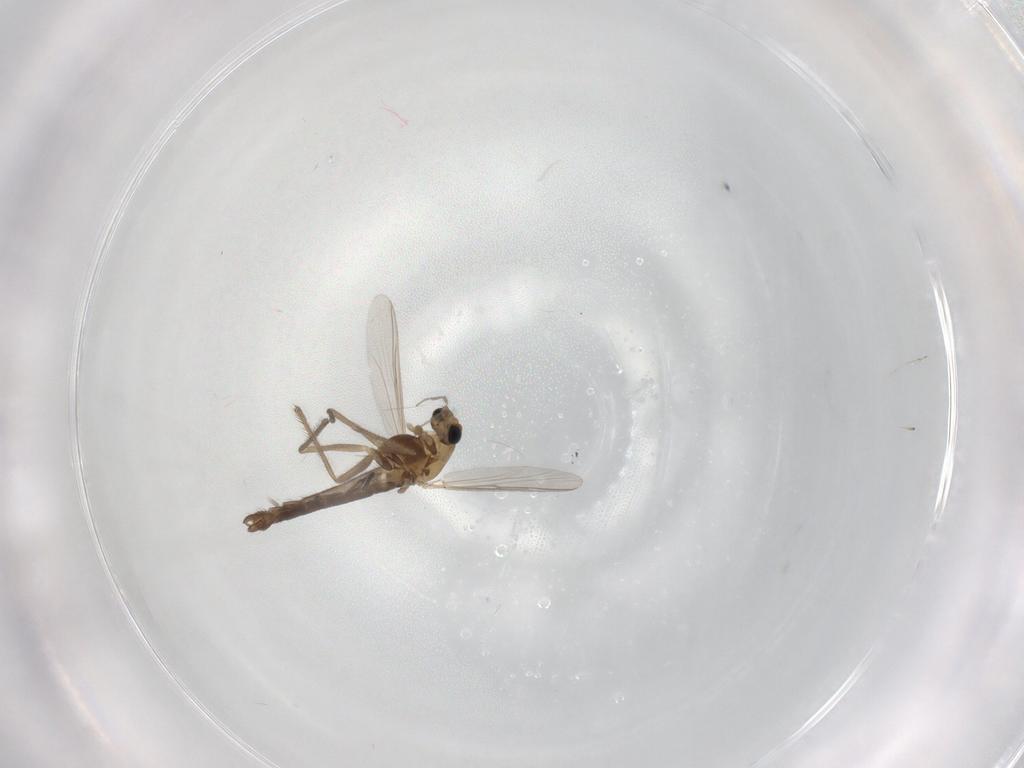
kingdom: Animalia
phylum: Arthropoda
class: Insecta
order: Diptera
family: Chironomidae
